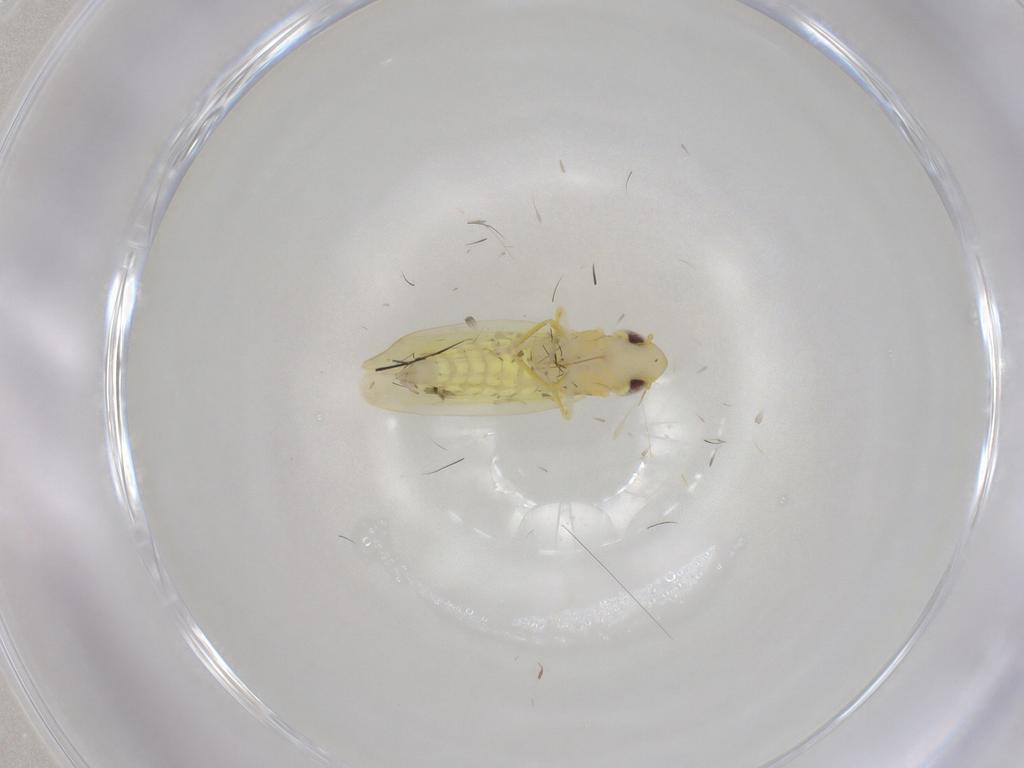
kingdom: Animalia
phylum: Arthropoda
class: Insecta
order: Hemiptera
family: Cicadellidae
